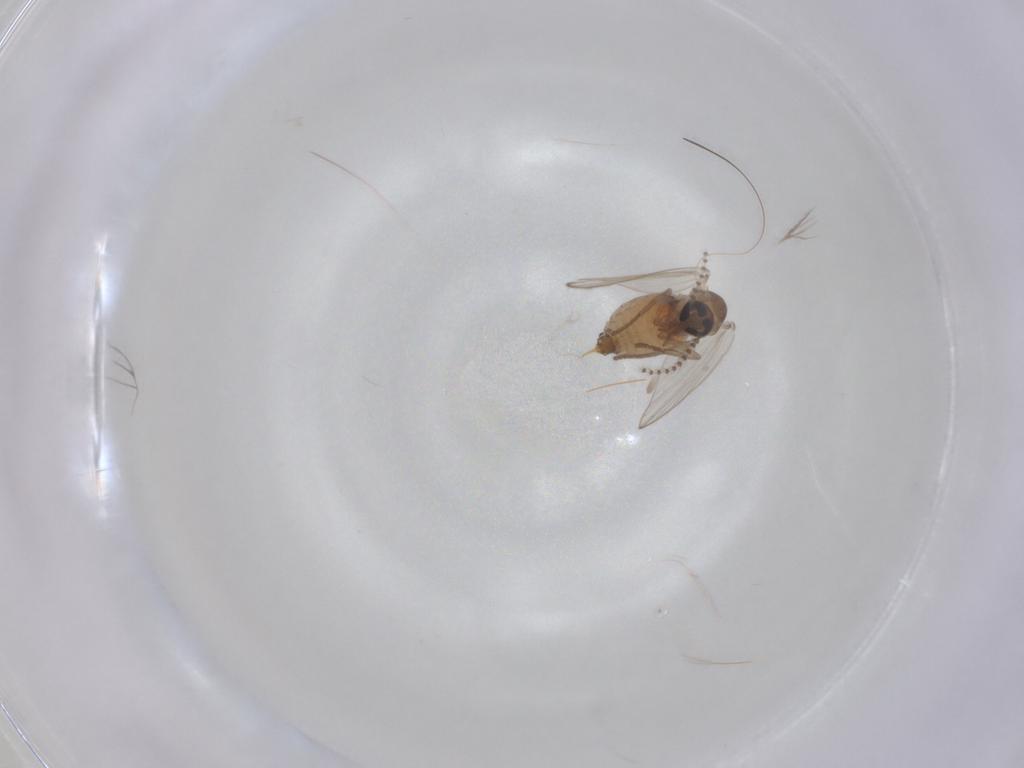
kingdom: Animalia
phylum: Arthropoda
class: Insecta
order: Diptera
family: Psychodidae
